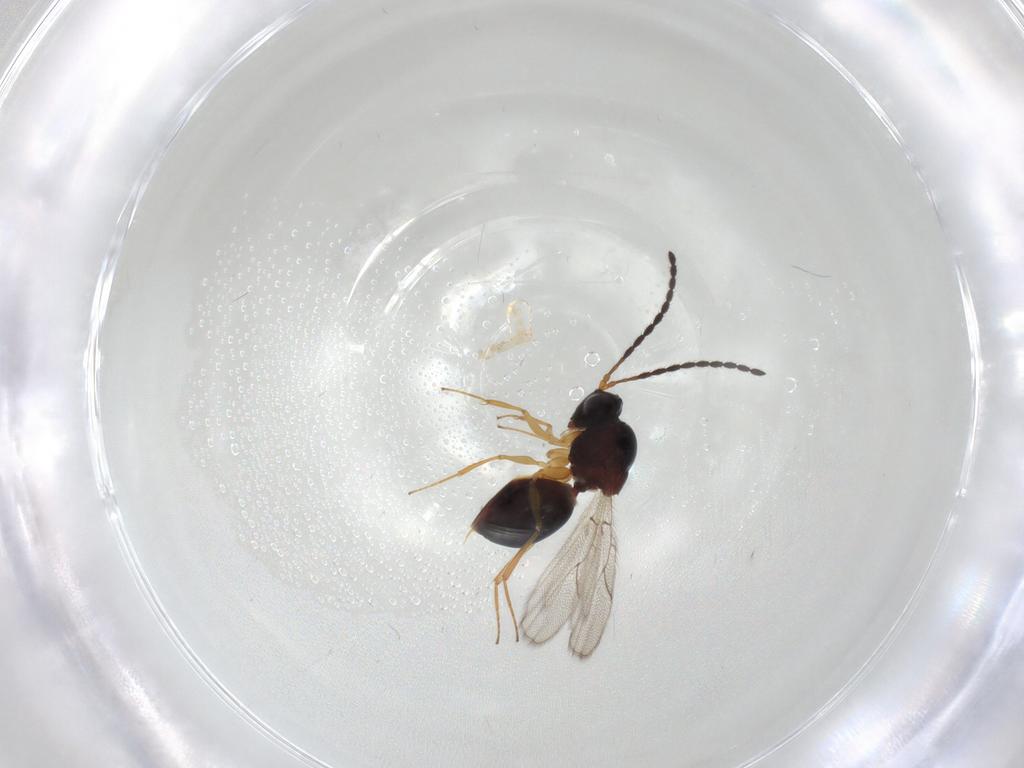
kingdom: Animalia
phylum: Arthropoda
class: Insecta
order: Hymenoptera
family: Figitidae
